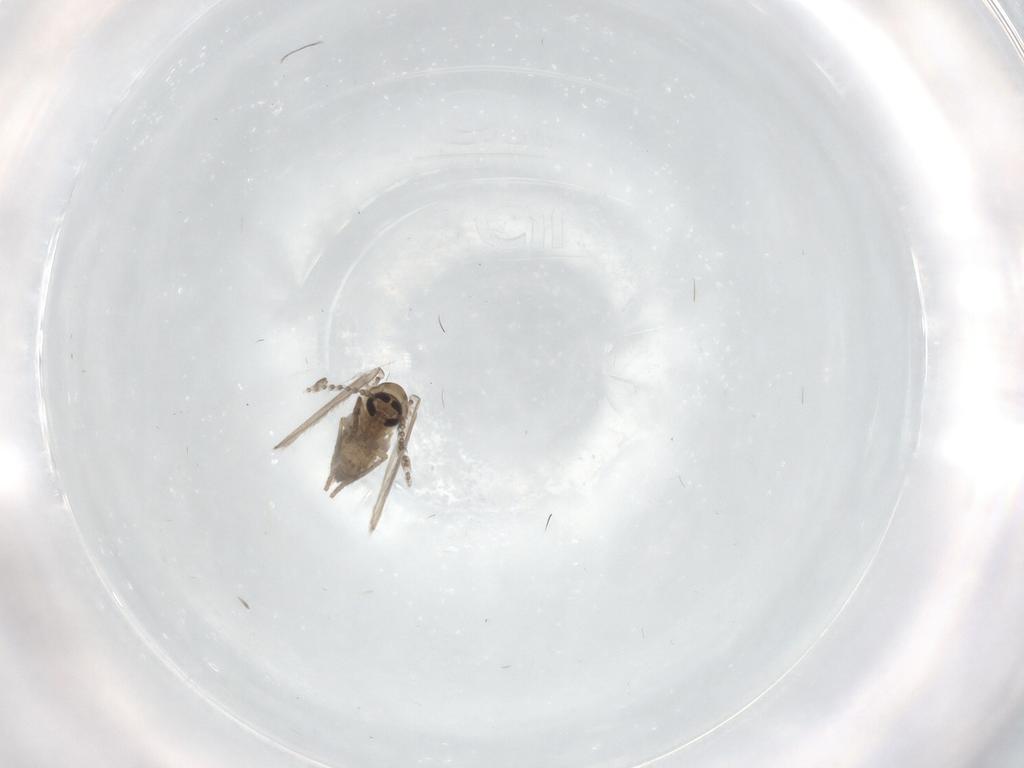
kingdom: Animalia
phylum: Arthropoda
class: Insecta
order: Diptera
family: Psychodidae
